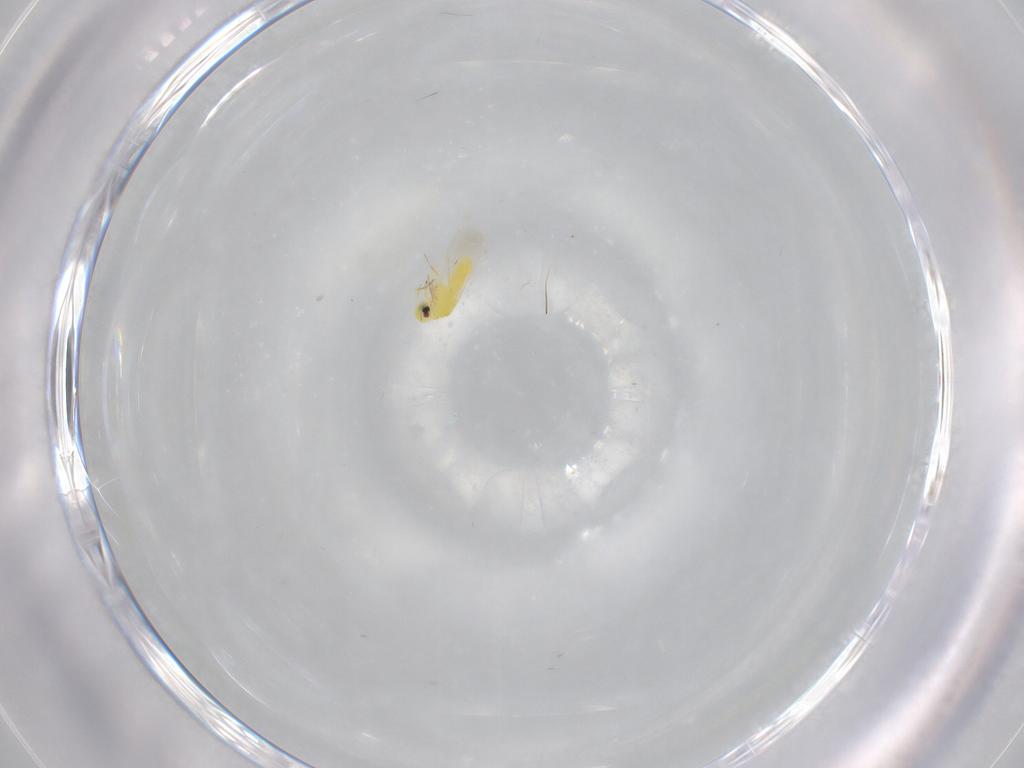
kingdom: Animalia
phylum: Arthropoda
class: Insecta
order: Hemiptera
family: Aleyrodidae
